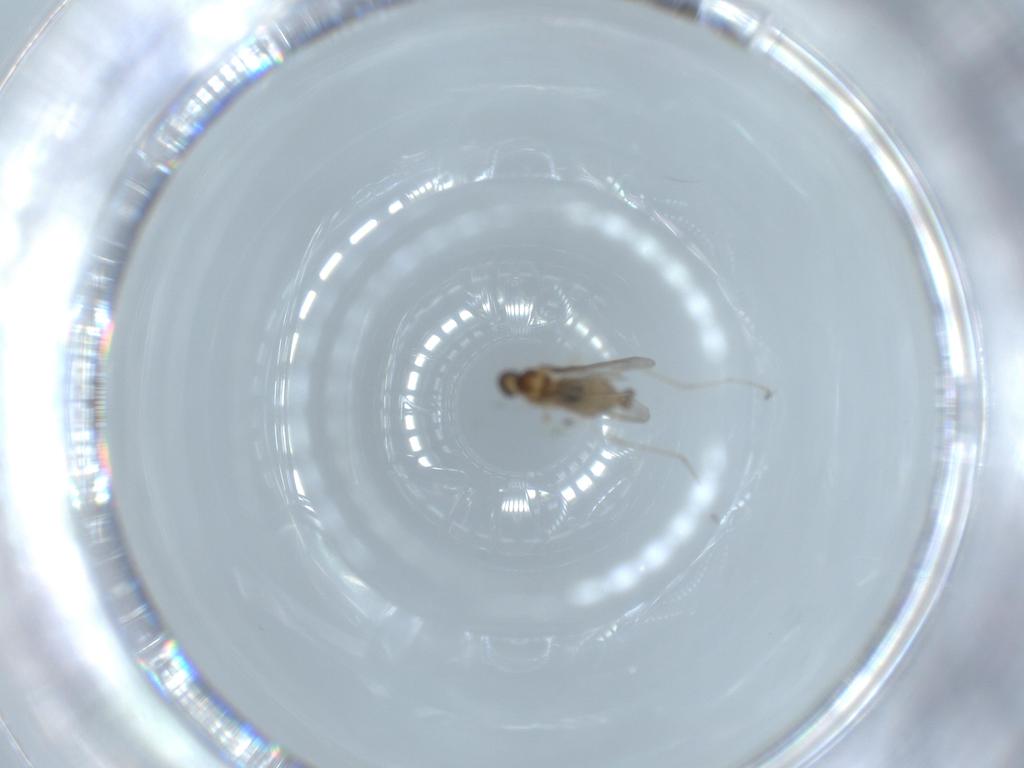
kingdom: Animalia
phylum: Arthropoda
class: Insecta
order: Diptera
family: Cecidomyiidae
